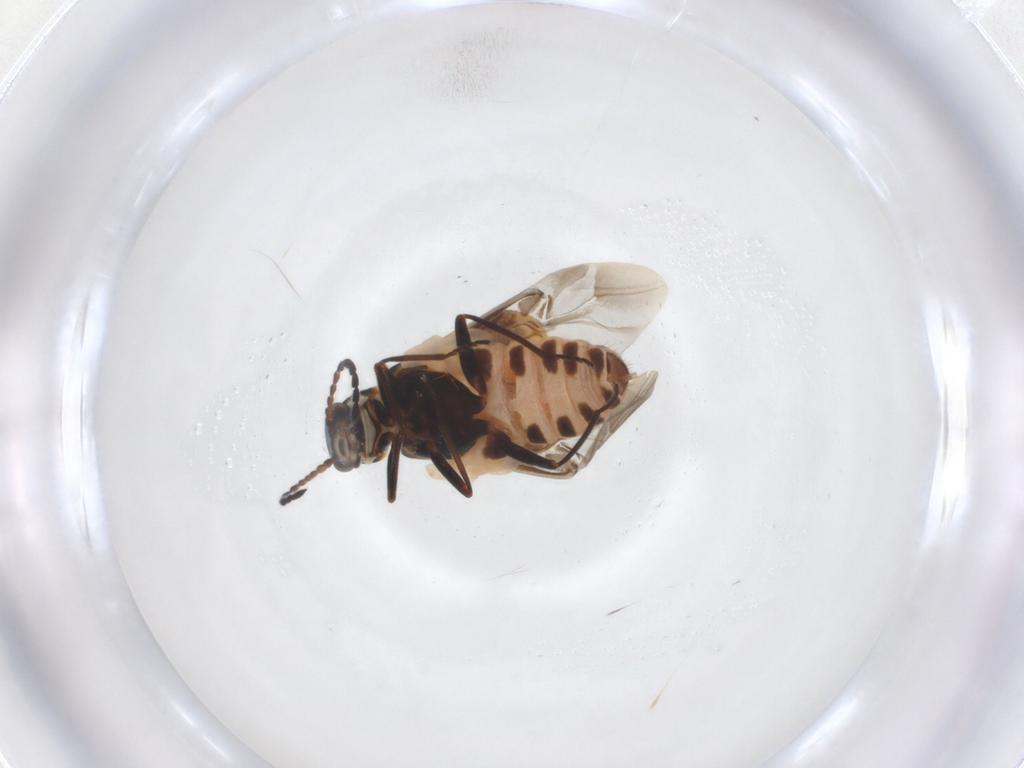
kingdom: Animalia
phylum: Arthropoda
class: Insecta
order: Coleoptera
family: Melyridae
